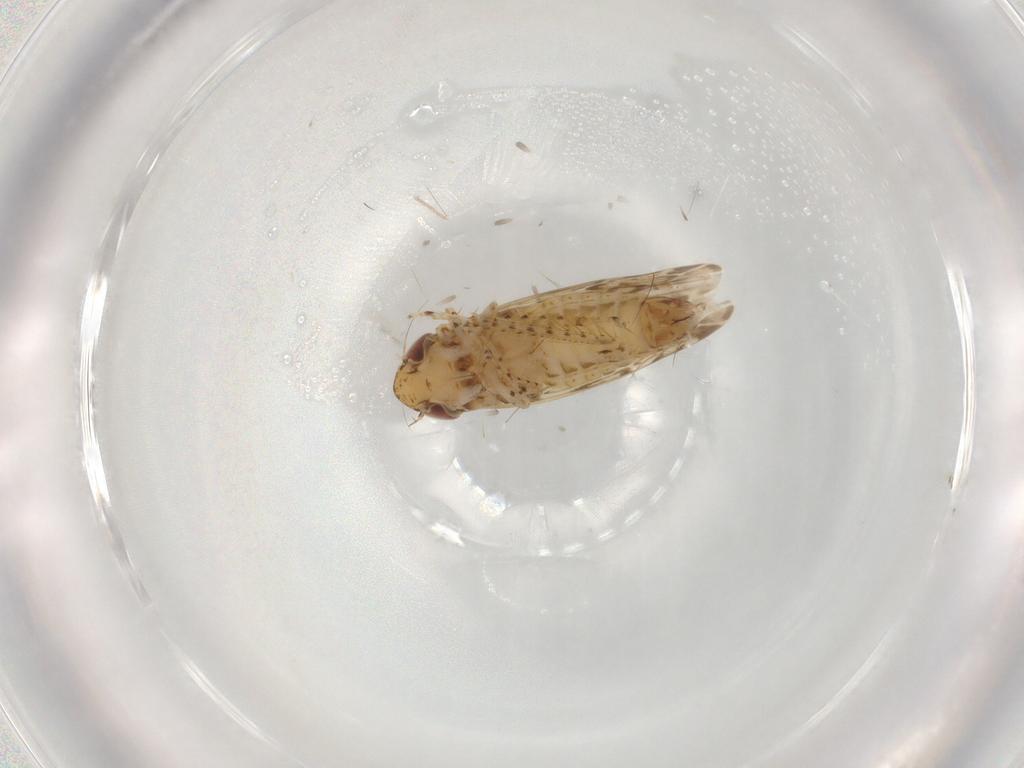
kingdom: Animalia
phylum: Arthropoda
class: Insecta
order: Hemiptera
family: Cicadellidae
